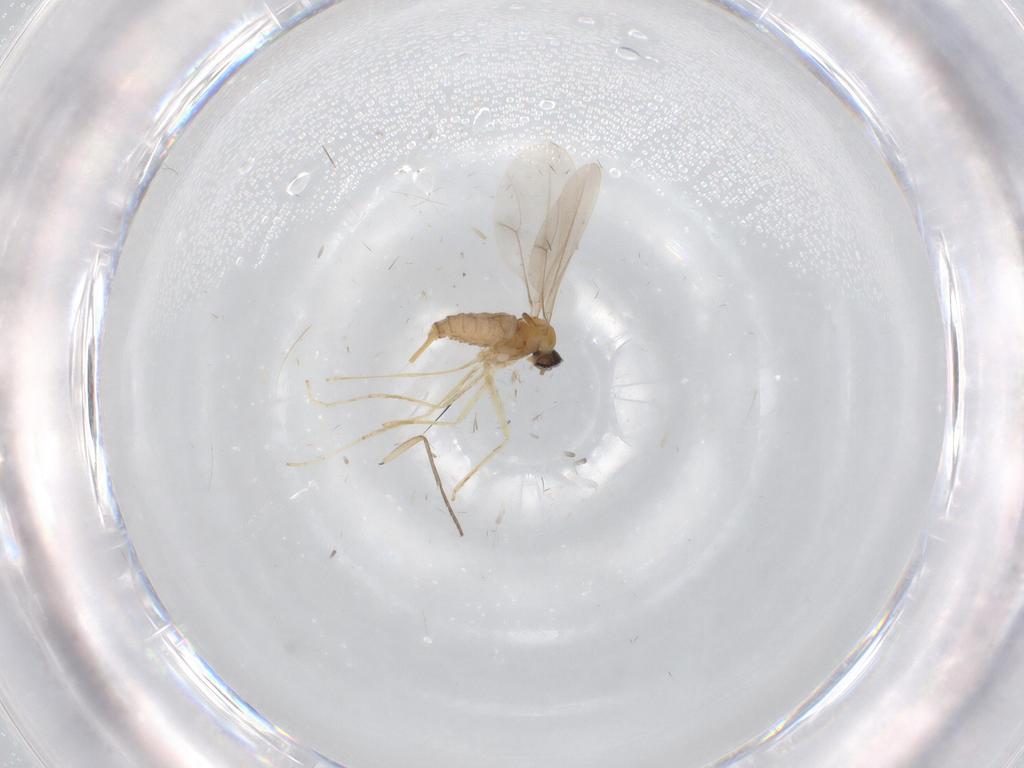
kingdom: Animalia
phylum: Arthropoda
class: Insecta
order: Diptera
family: Cecidomyiidae
